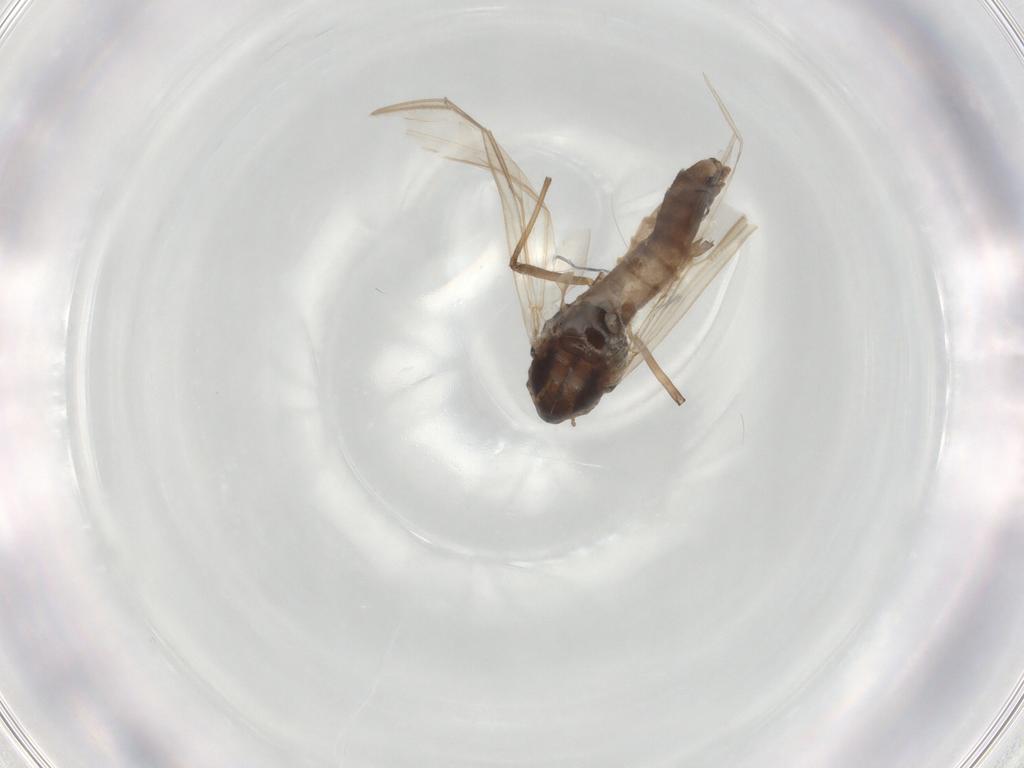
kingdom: Animalia
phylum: Arthropoda
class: Insecta
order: Diptera
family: Chironomidae
